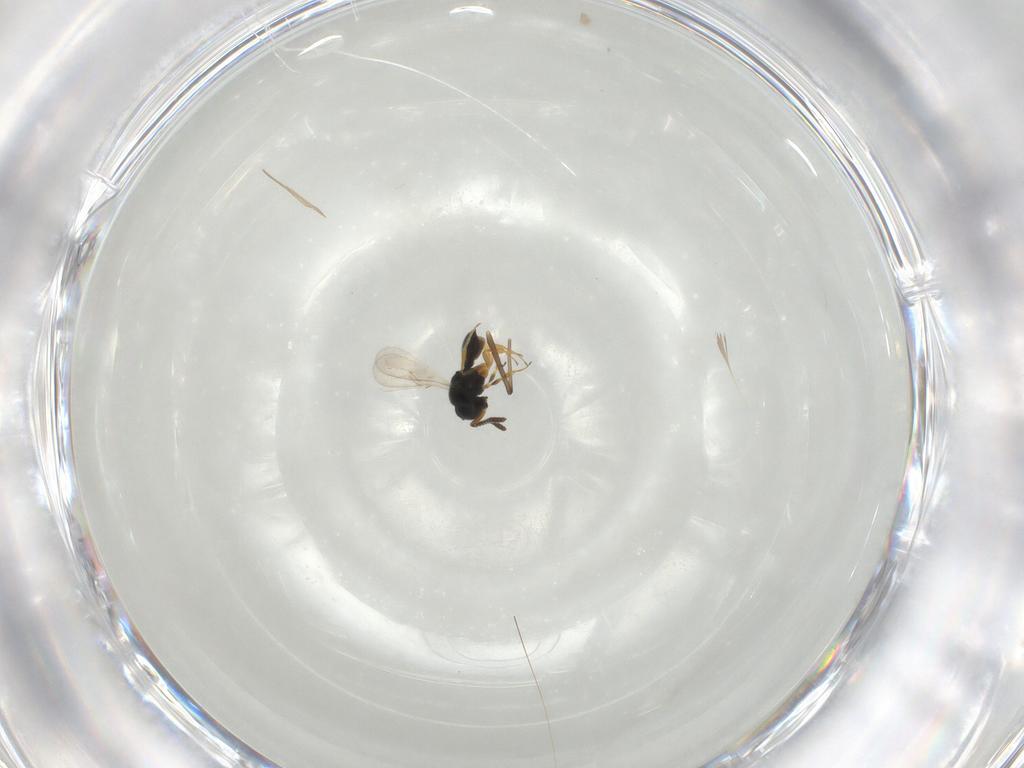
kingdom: Animalia
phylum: Arthropoda
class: Insecta
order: Hymenoptera
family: Scelionidae
